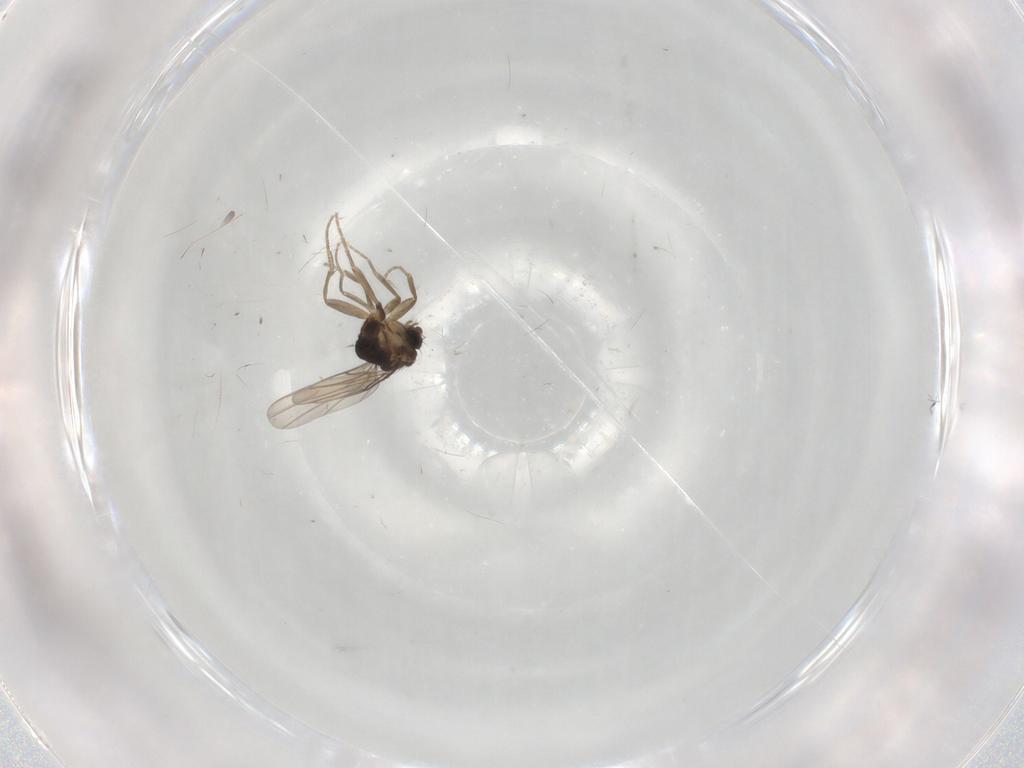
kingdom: Animalia
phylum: Arthropoda
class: Insecta
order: Diptera
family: Phoridae
